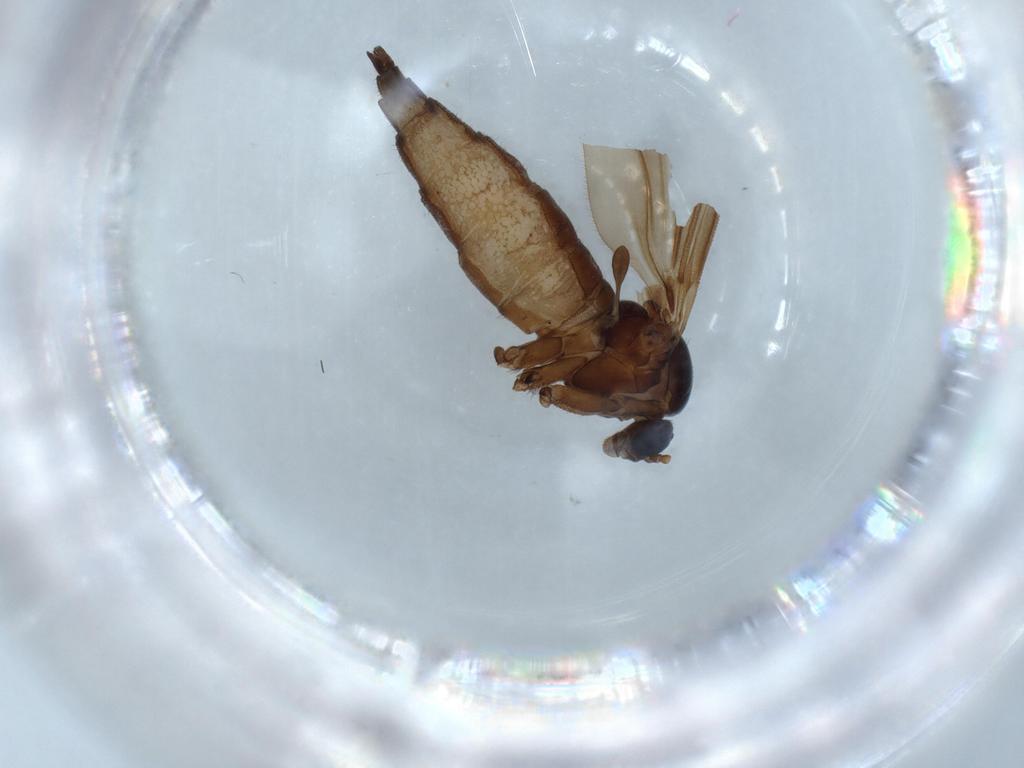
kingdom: Animalia
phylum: Arthropoda
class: Insecta
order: Diptera
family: Sciaridae
